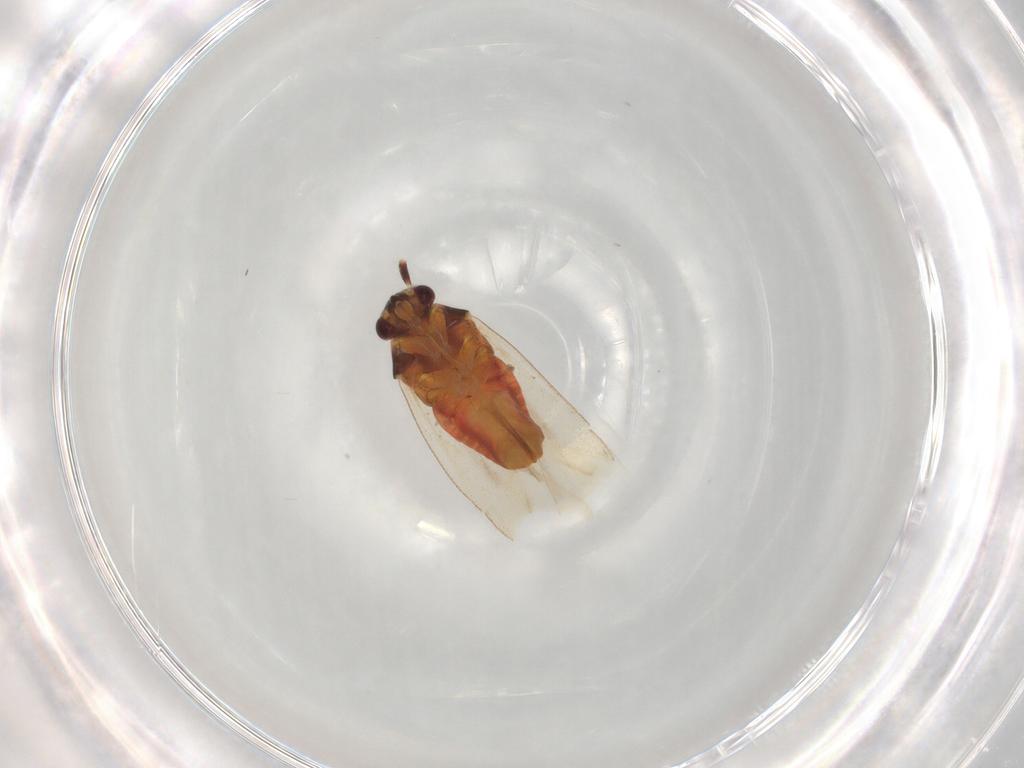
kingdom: Animalia
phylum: Arthropoda
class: Insecta
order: Hemiptera
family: Miridae
